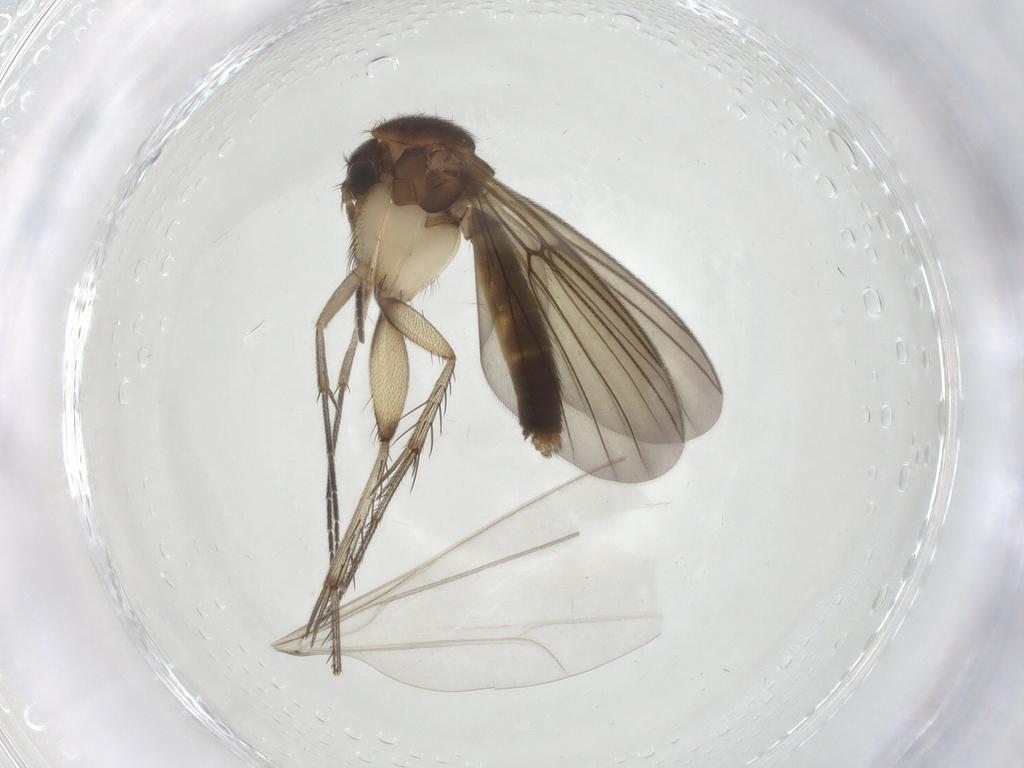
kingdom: Animalia
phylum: Arthropoda
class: Insecta
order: Diptera
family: Mycetophilidae
